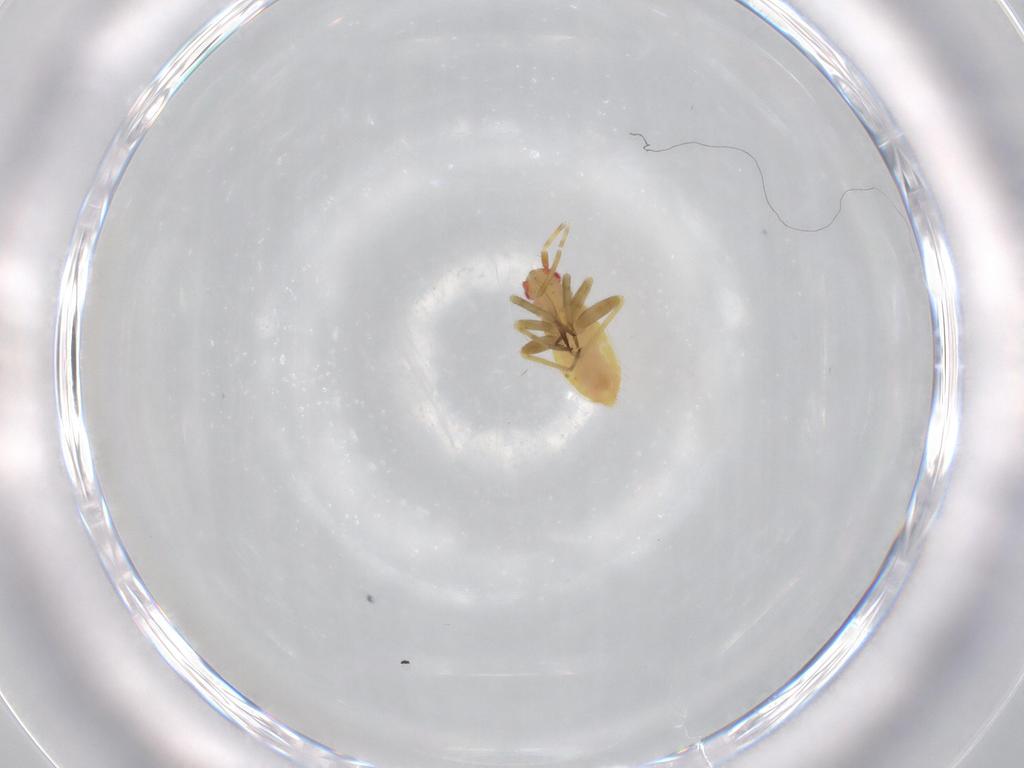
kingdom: Animalia
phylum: Arthropoda
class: Insecta
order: Hemiptera
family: Miridae
